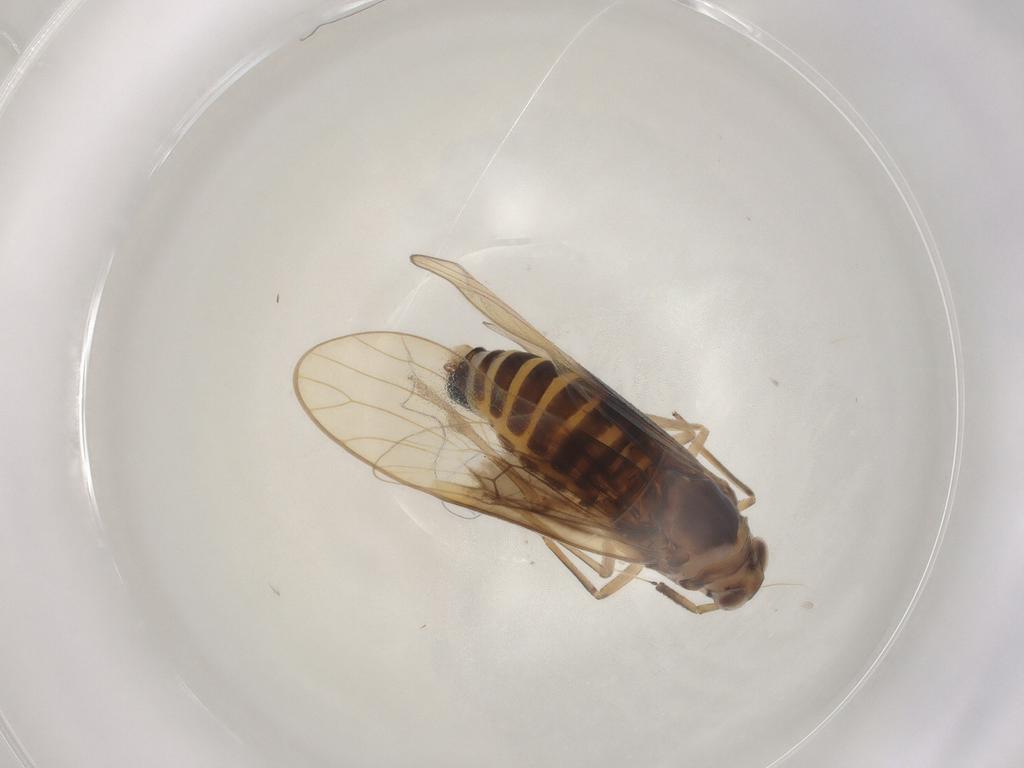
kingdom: Animalia
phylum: Arthropoda
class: Insecta
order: Hemiptera
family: Delphacidae
